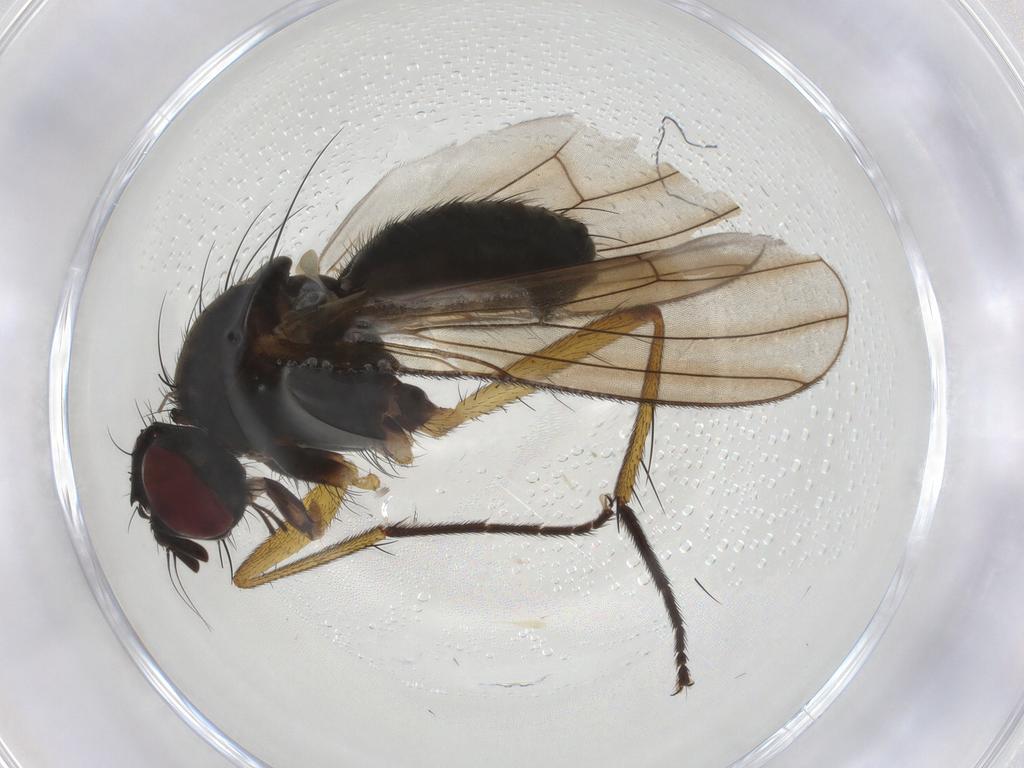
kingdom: Animalia
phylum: Arthropoda
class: Insecta
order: Diptera
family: Muscidae
